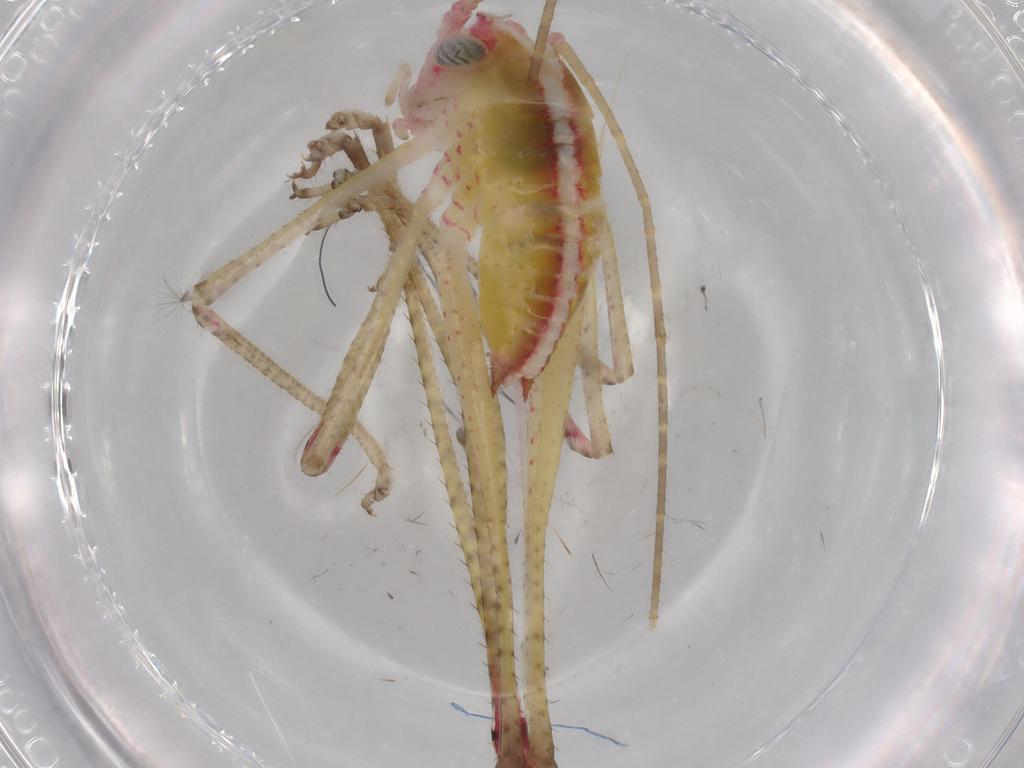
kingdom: Animalia
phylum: Arthropoda
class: Insecta
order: Orthoptera
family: Tettigoniidae
